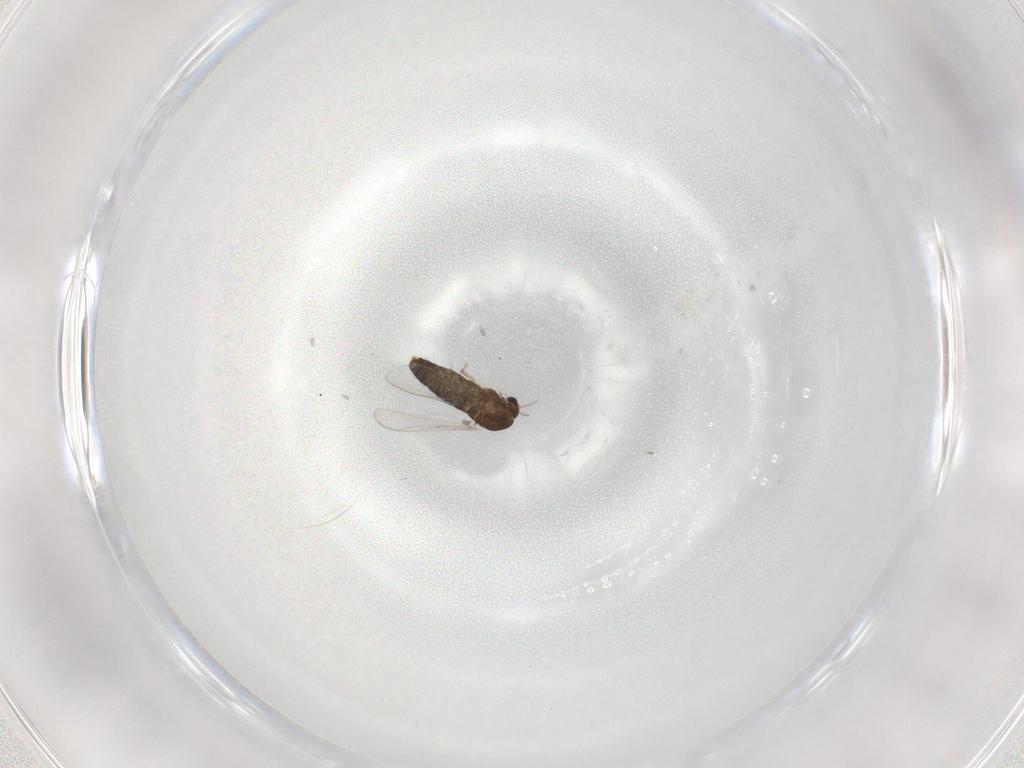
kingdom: Animalia
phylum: Arthropoda
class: Insecta
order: Diptera
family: Chironomidae
